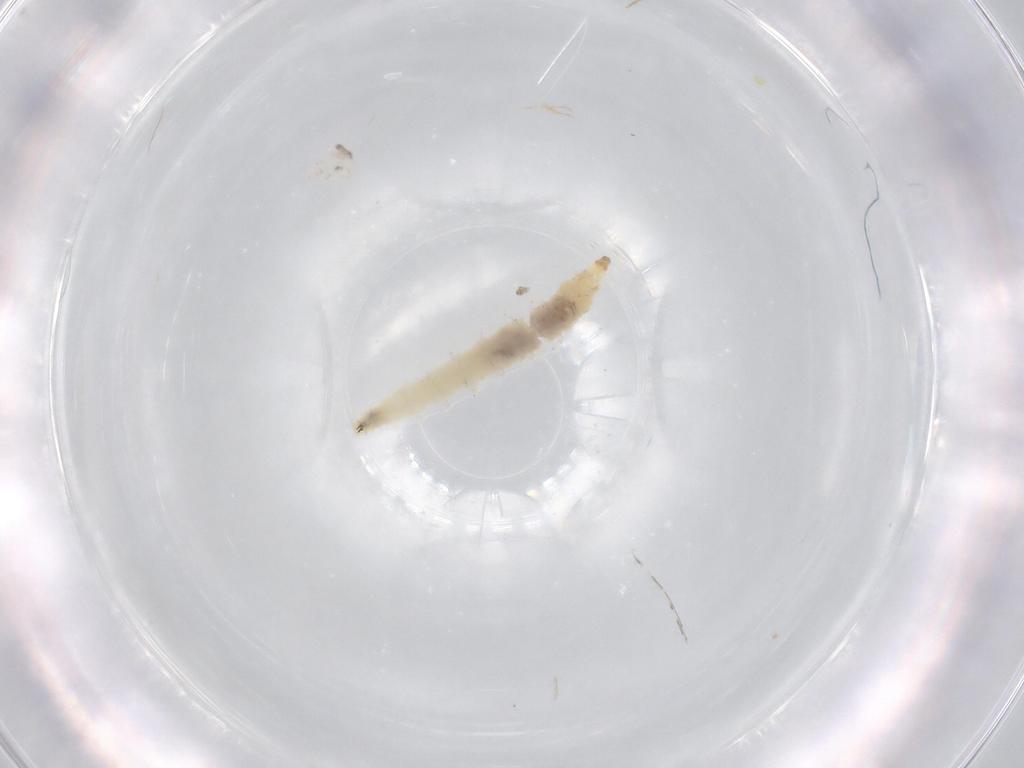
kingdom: Animalia
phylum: Arthropoda
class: Insecta
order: Diptera
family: Drosophilidae
